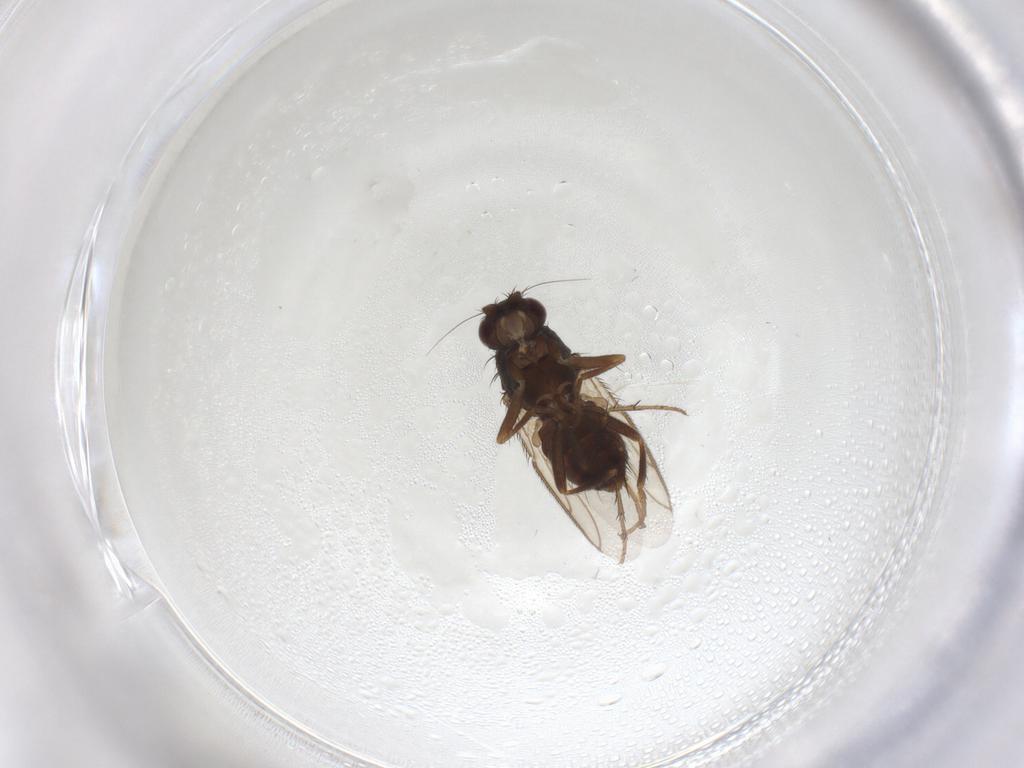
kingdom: Animalia
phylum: Arthropoda
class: Insecta
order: Diptera
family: Sphaeroceridae
